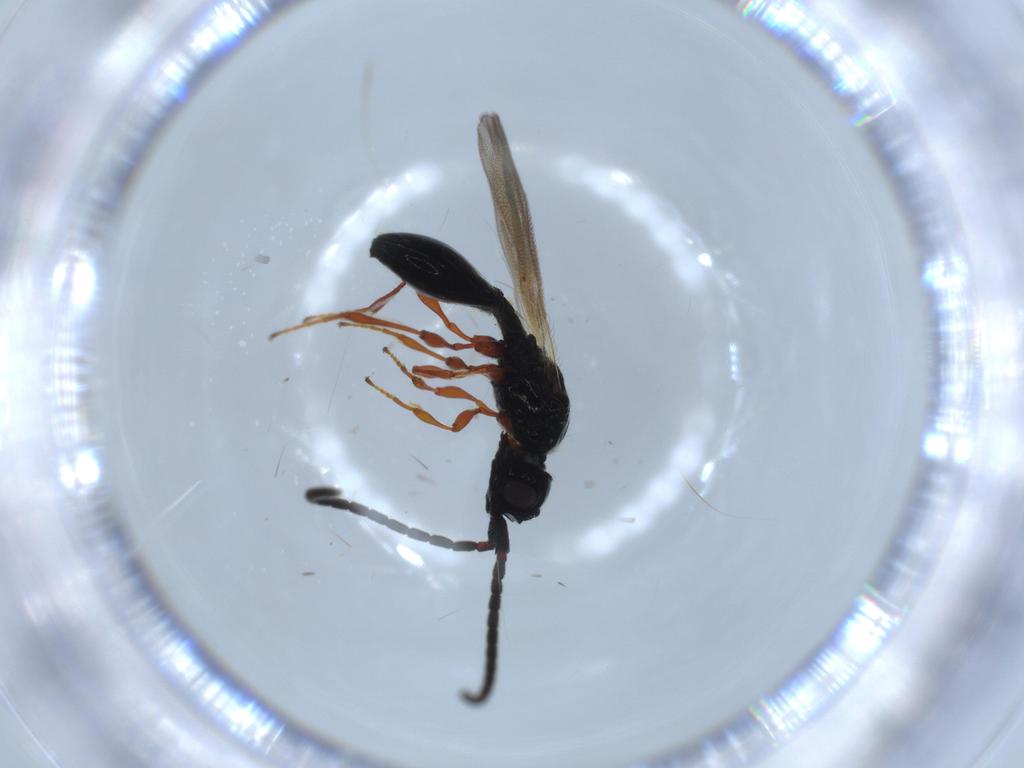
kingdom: Animalia
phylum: Arthropoda
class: Insecta
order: Hymenoptera
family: Diapriidae
